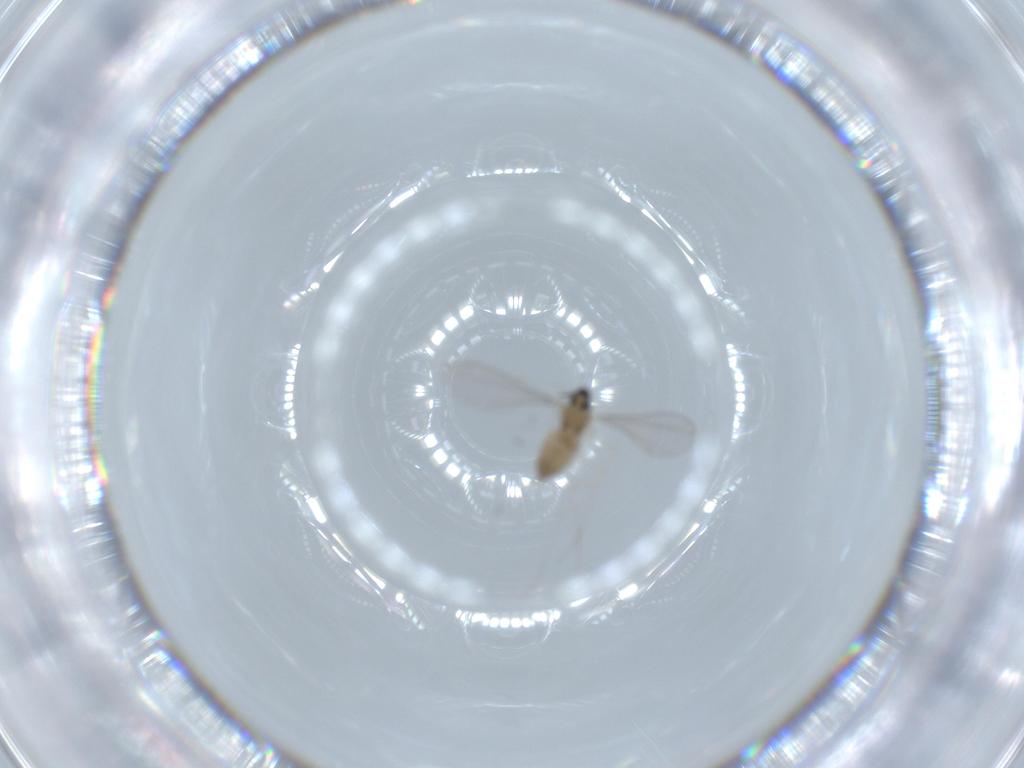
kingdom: Animalia
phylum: Arthropoda
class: Insecta
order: Diptera
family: Cecidomyiidae
